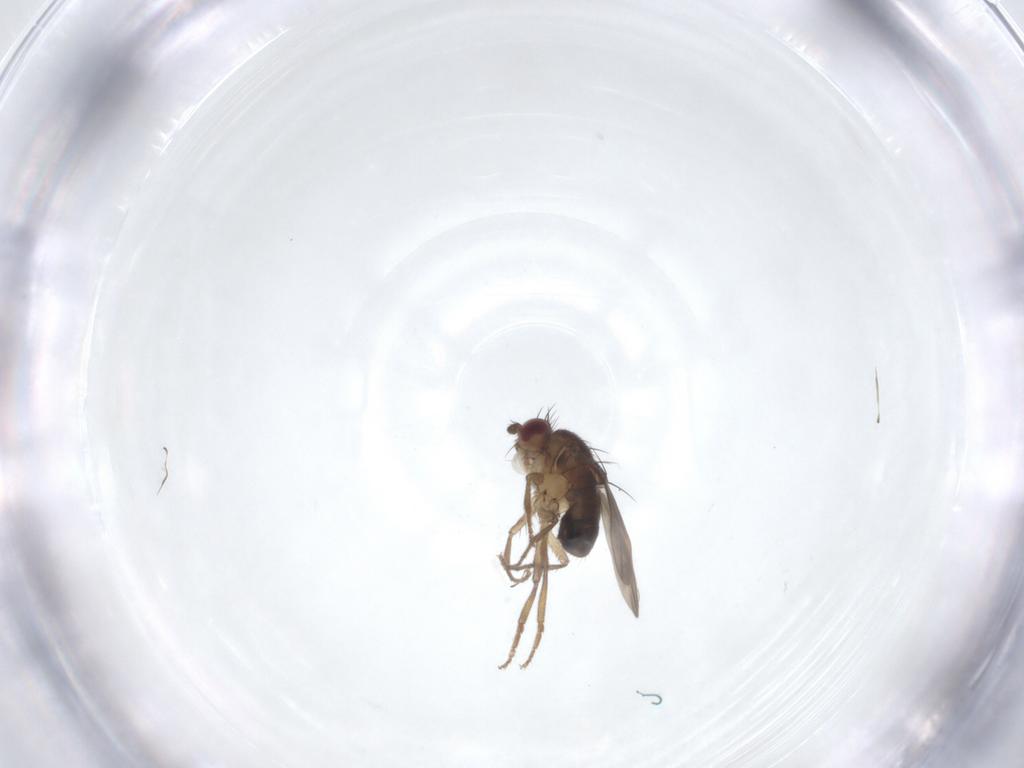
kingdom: Animalia
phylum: Arthropoda
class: Insecta
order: Diptera
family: Sphaeroceridae
